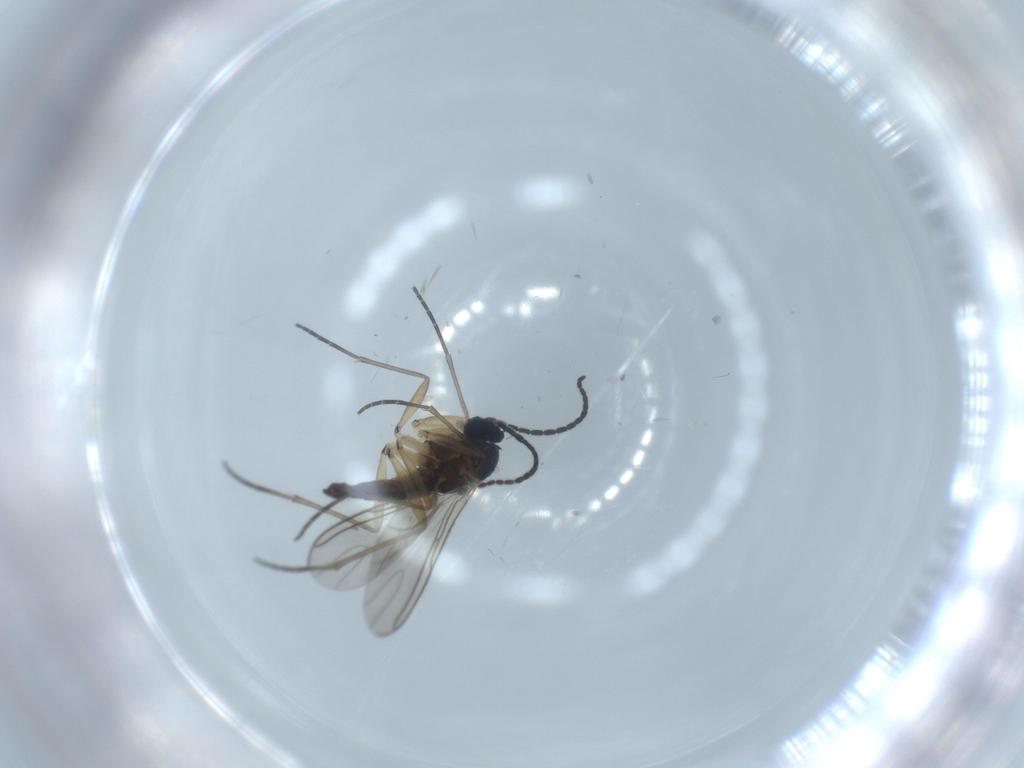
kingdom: Animalia
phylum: Arthropoda
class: Insecta
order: Diptera
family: Sciaridae
